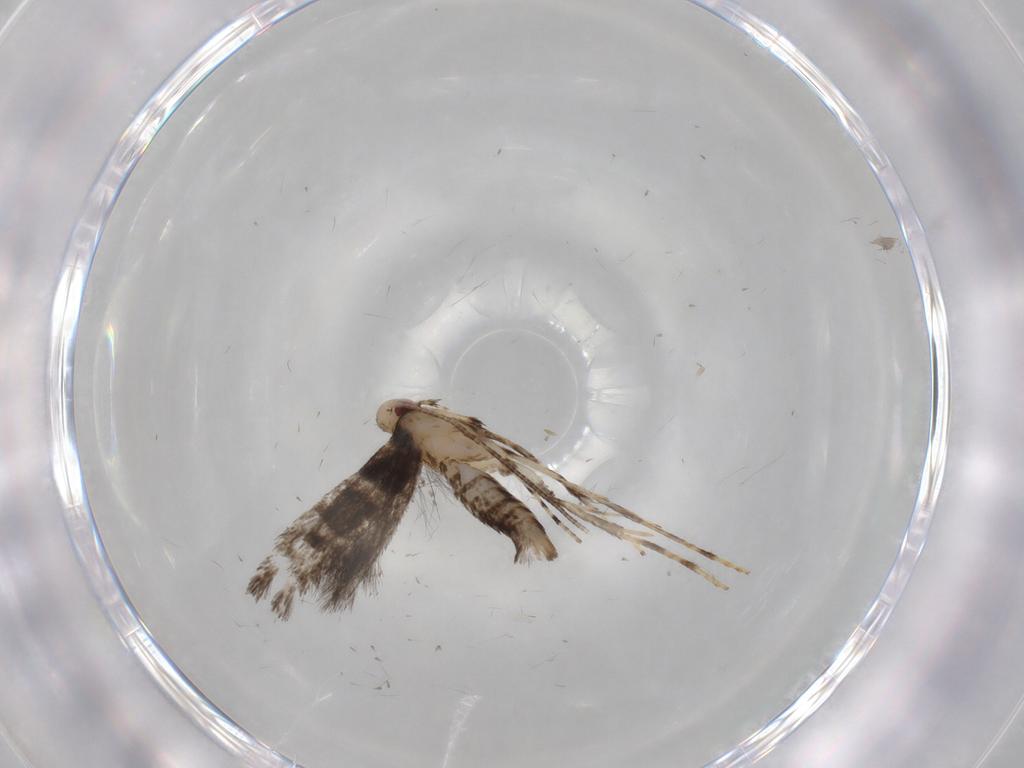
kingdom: Animalia
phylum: Arthropoda
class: Insecta
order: Lepidoptera
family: Gracillariidae
